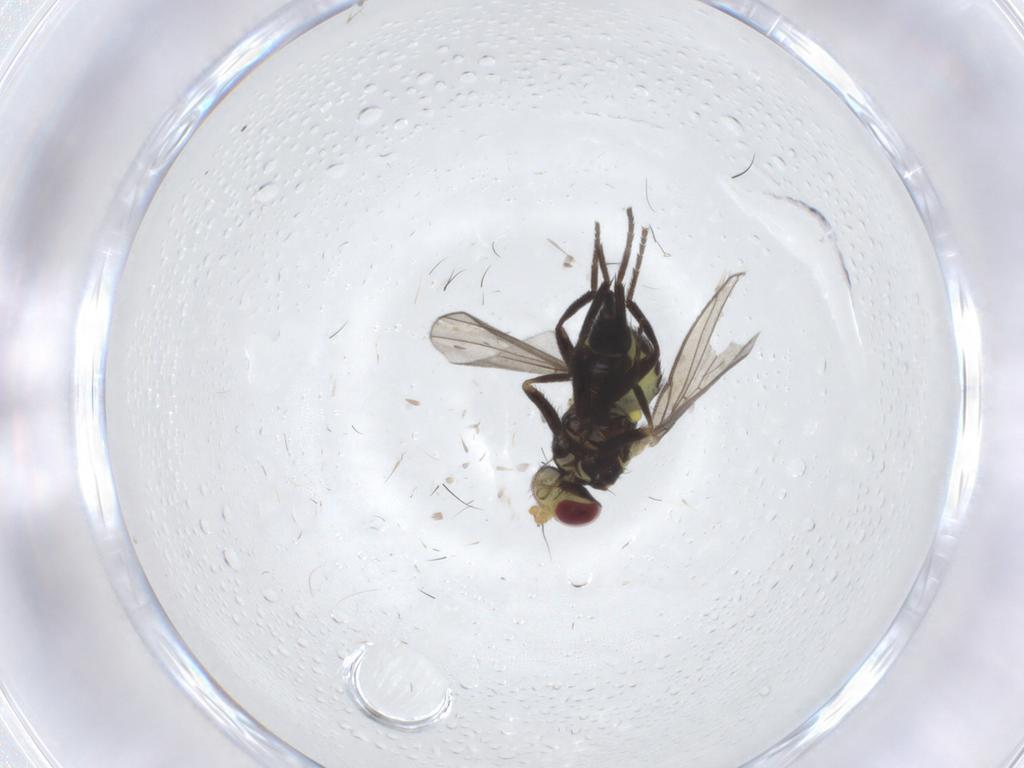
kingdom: Animalia
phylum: Arthropoda
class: Insecta
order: Diptera
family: Agromyzidae
